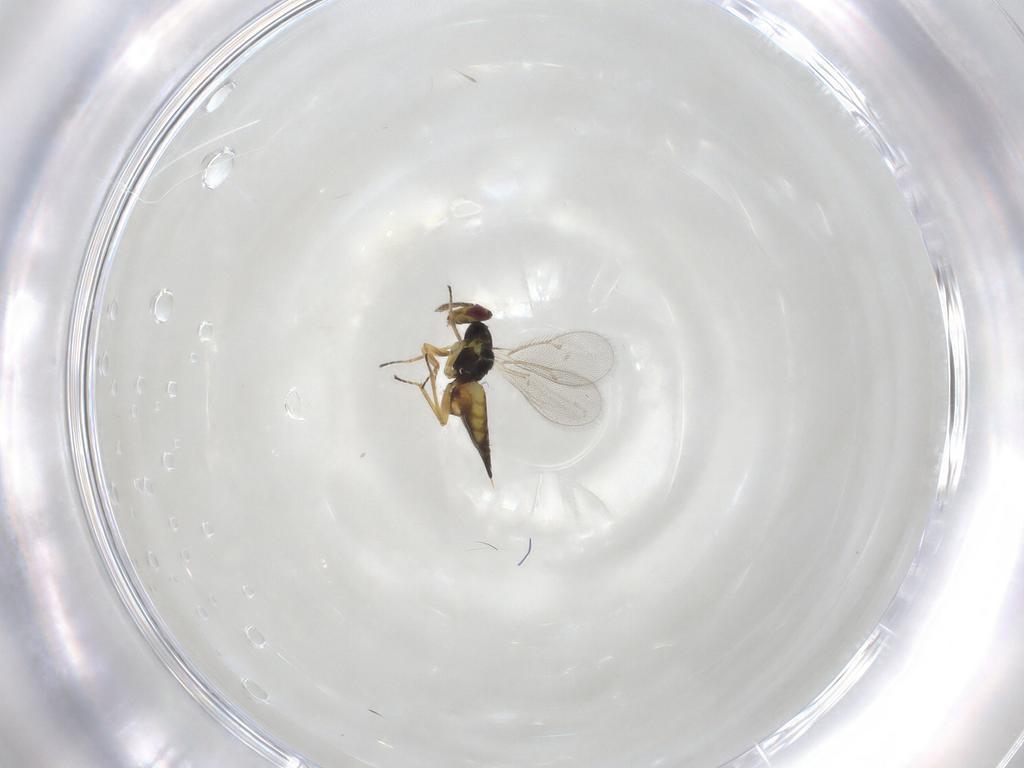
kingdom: Animalia
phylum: Arthropoda
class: Insecta
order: Hymenoptera
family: Eulophidae
